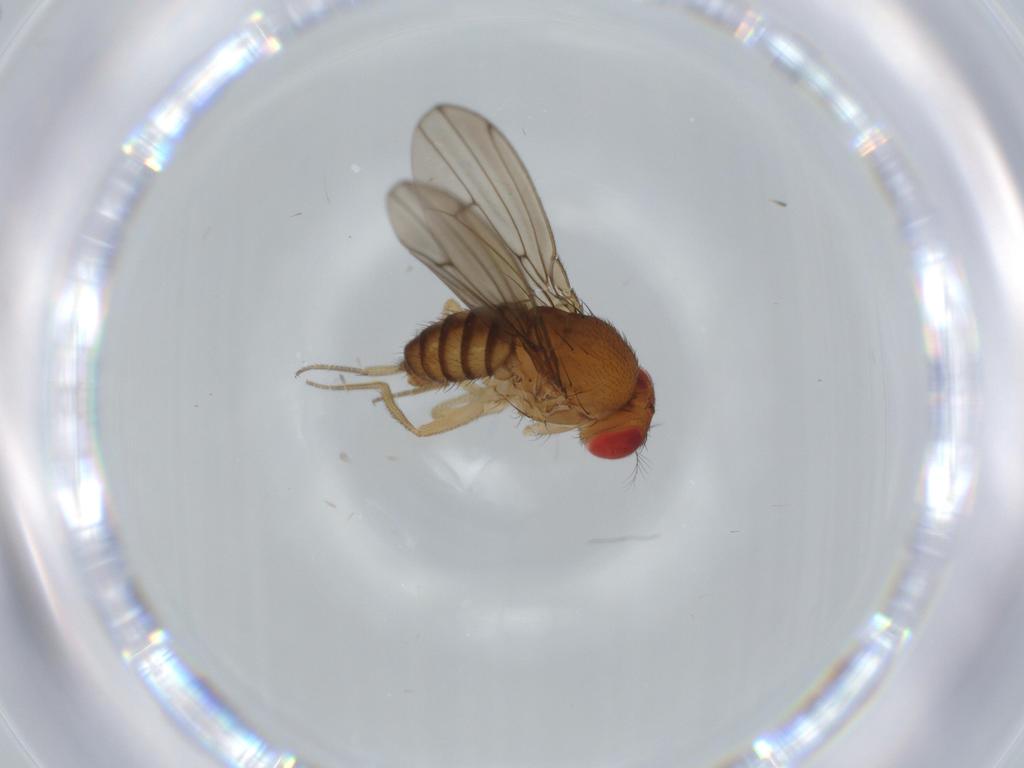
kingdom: Animalia
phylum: Arthropoda
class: Insecta
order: Diptera
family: Drosophilidae
